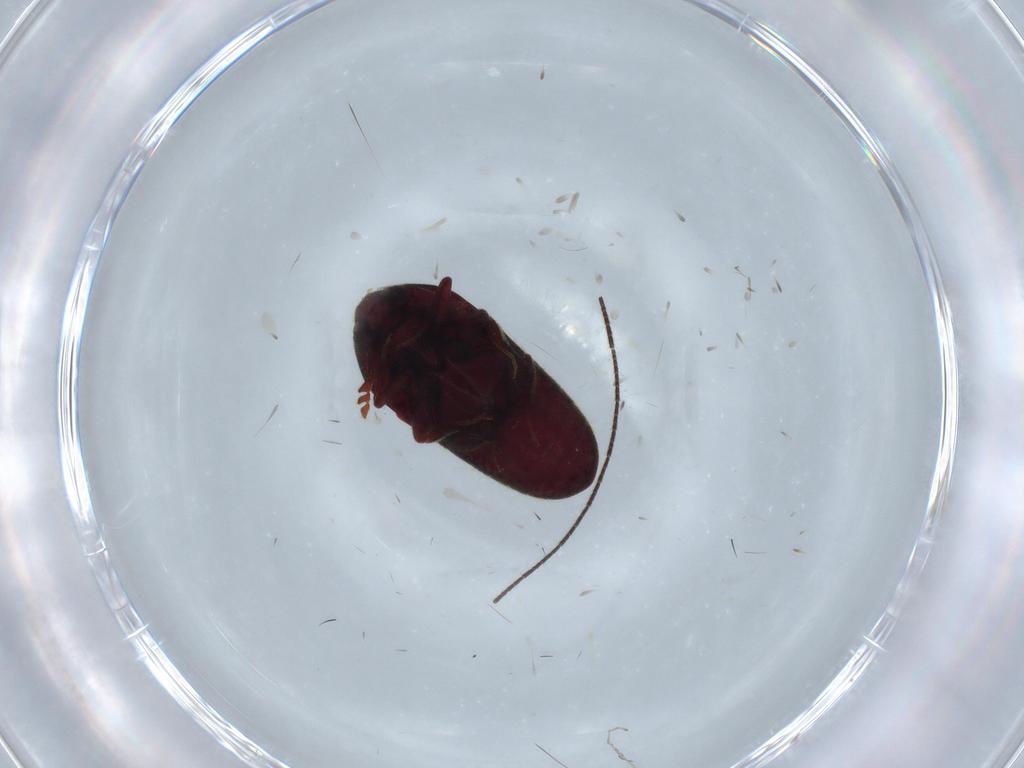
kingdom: Animalia
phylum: Arthropoda
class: Insecta
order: Coleoptera
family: Throscidae
